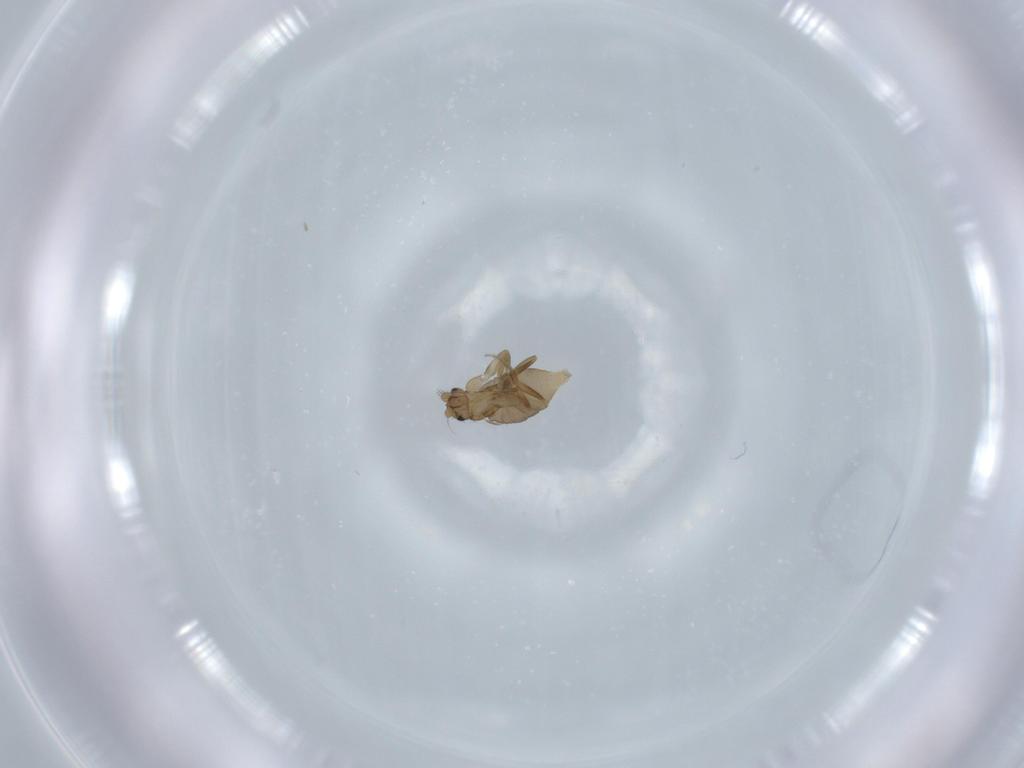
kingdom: Animalia
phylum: Arthropoda
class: Insecta
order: Diptera
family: Phoridae
